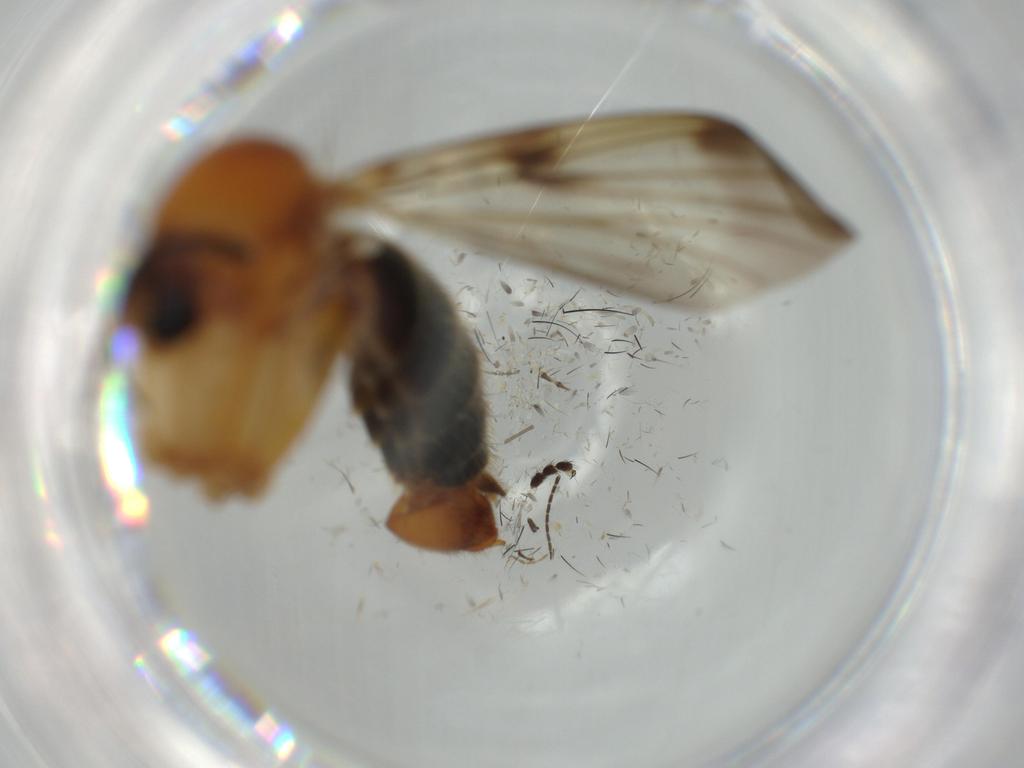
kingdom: Animalia
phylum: Arthropoda
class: Insecta
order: Diptera
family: Cecidomyiidae
